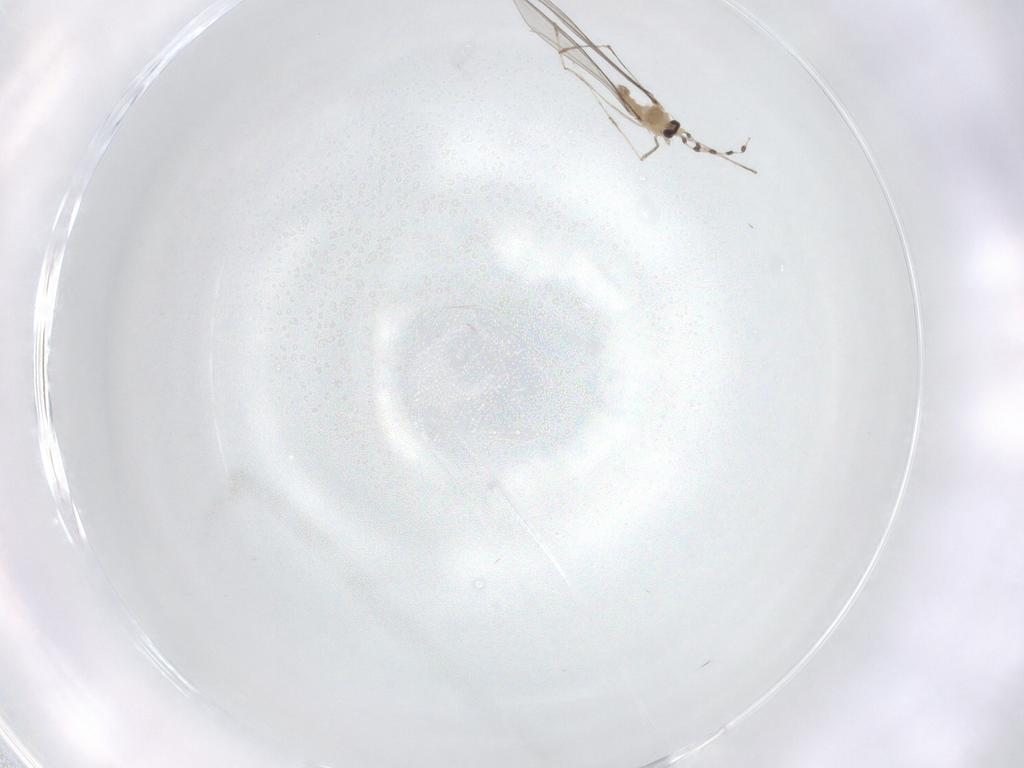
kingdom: Animalia
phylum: Arthropoda
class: Insecta
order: Diptera
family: Cecidomyiidae
